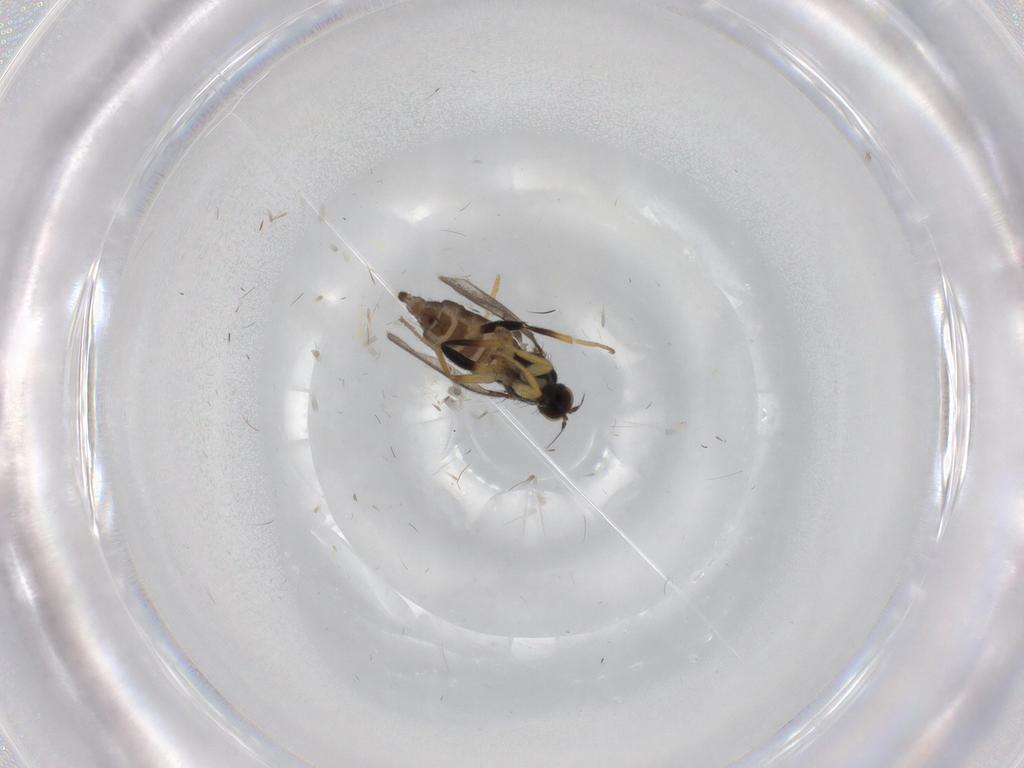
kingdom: Animalia
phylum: Arthropoda
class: Insecta
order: Diptera
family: Hybotidae
